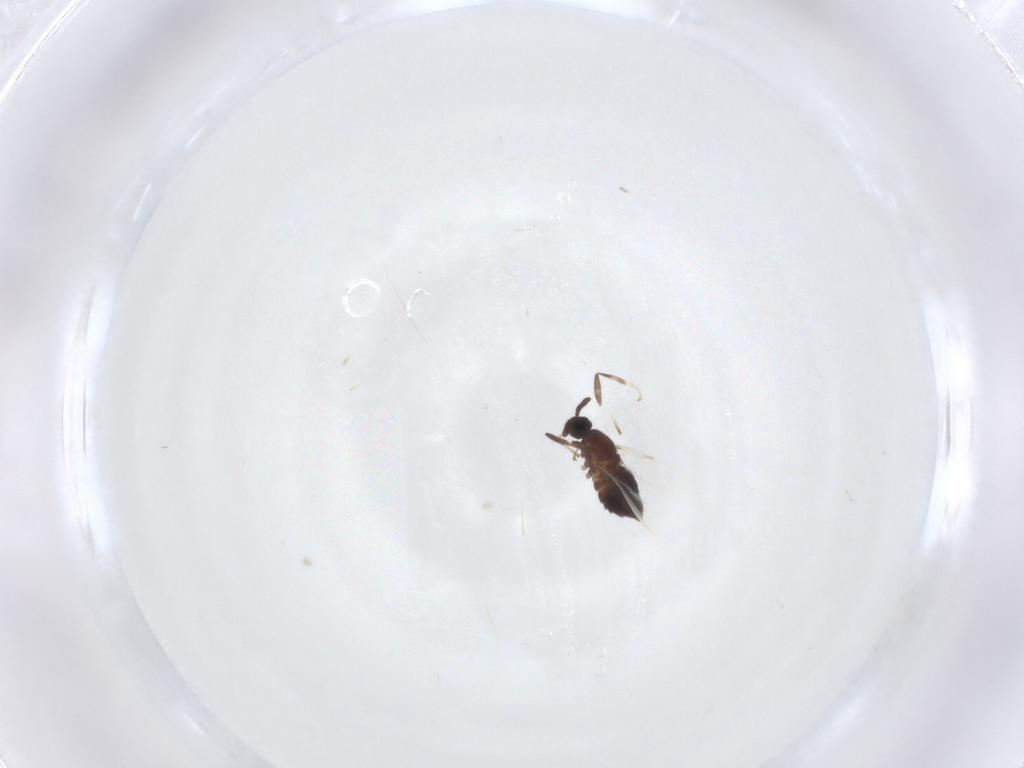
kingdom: Animalia
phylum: Arthropoda
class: Insecta
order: Diptera
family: Scatopsidae
